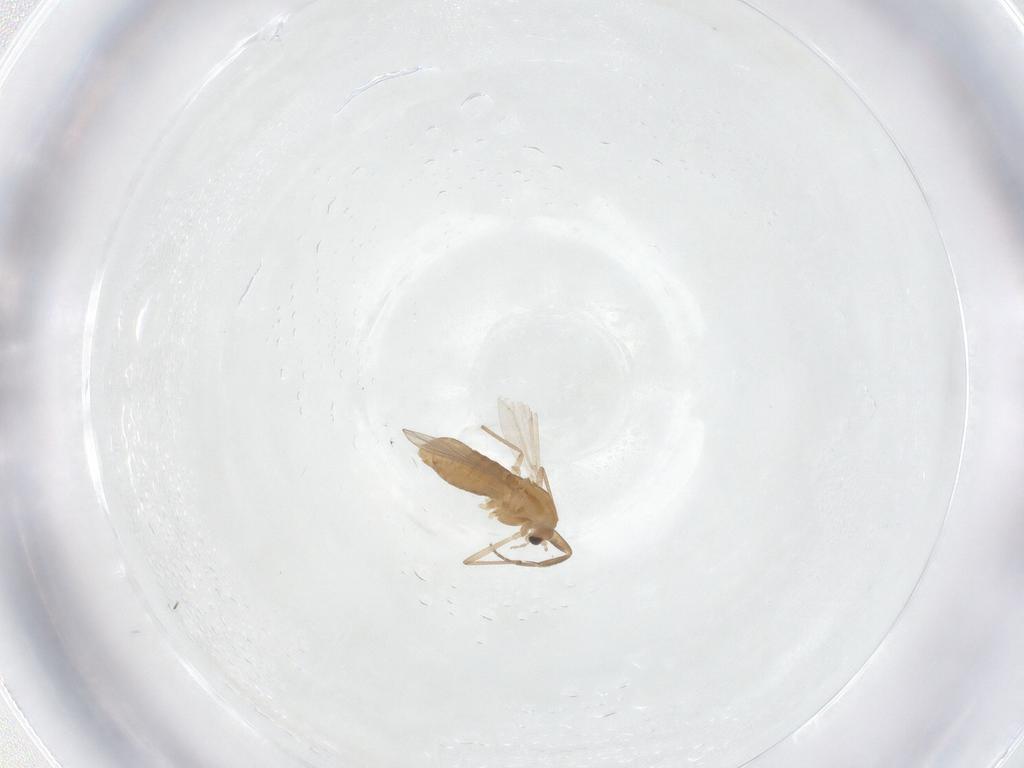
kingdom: Animalia
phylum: Arthropoda
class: Insecta
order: Diptera
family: Chironomidae
